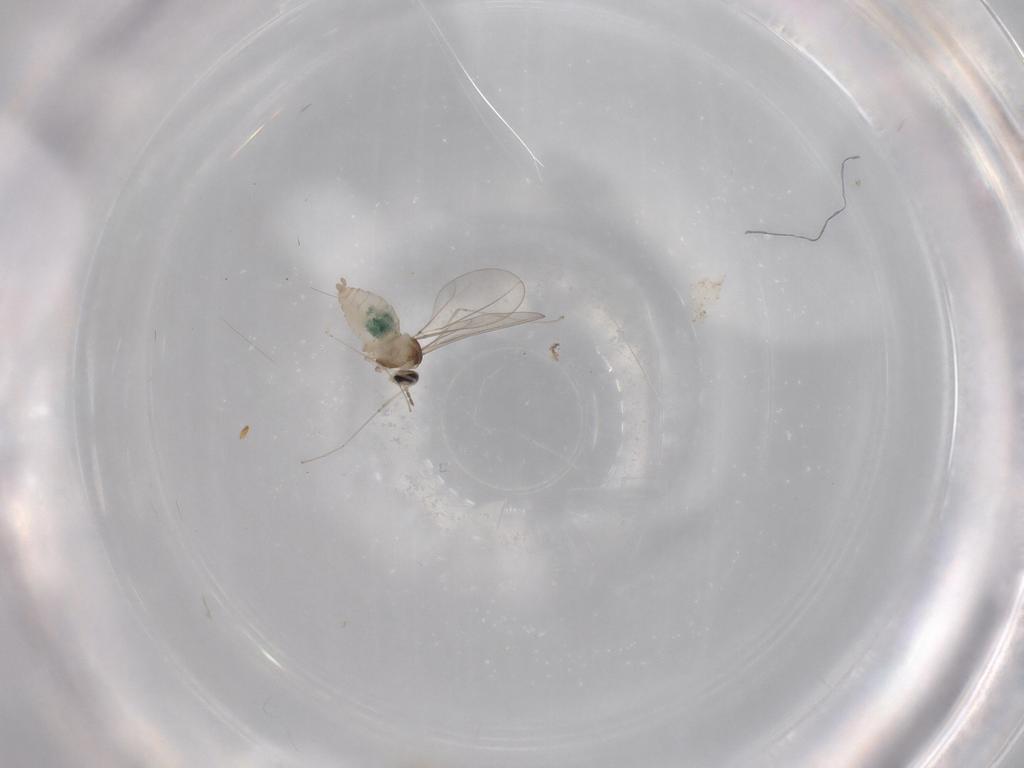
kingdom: Animalia
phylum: Arthropoda
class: Insecta
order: Diptera
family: Cecidomyiidae
